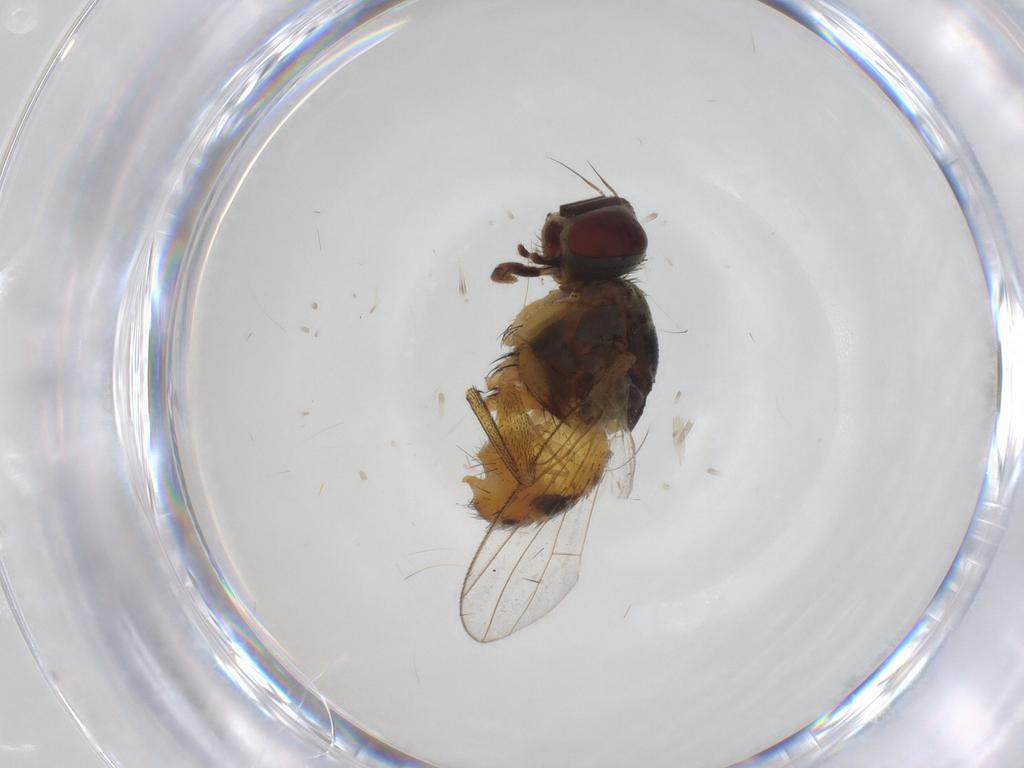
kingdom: Animalia
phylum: Arthropoda
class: Insecta
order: Diptera
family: Muscidae
